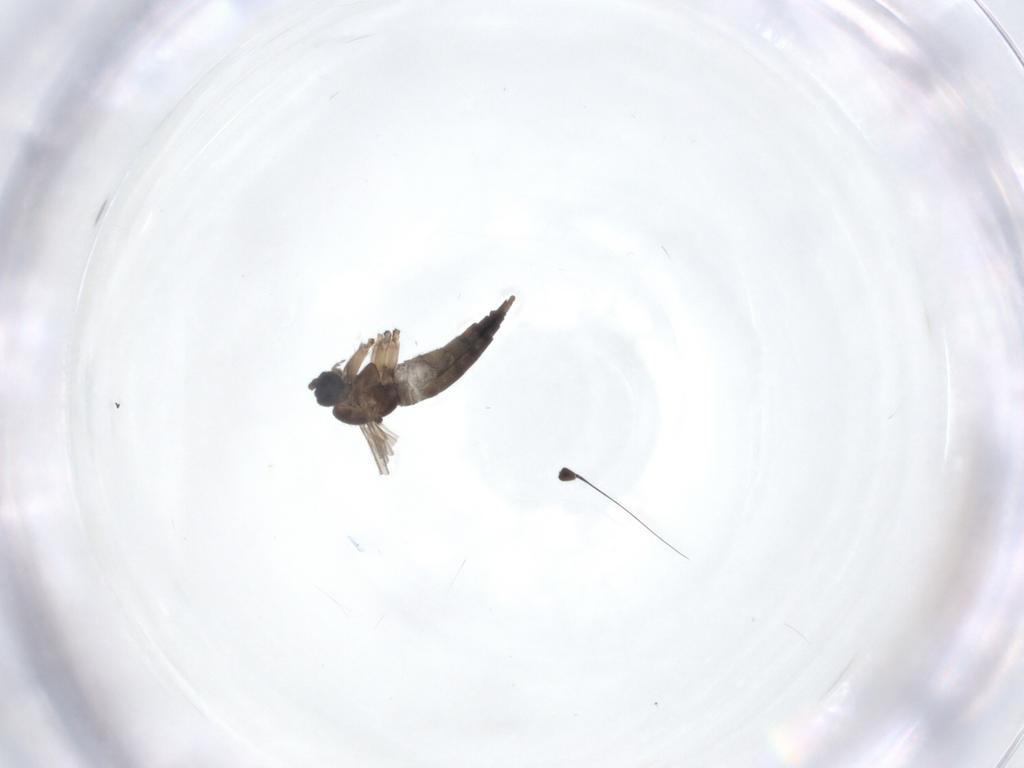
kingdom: Animalia
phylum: Arthropoda
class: Insecta
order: Diptera
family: Sciaridae
